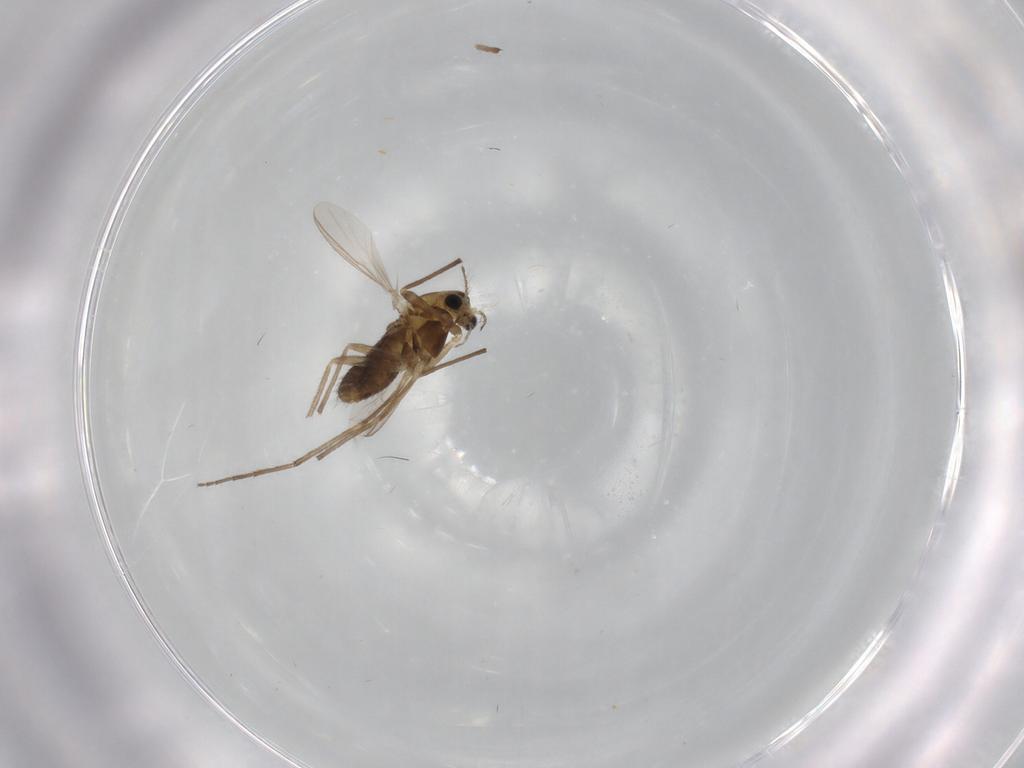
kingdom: Animalia
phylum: Arthropoda
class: Insecta
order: Diptera
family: Chironomidae
